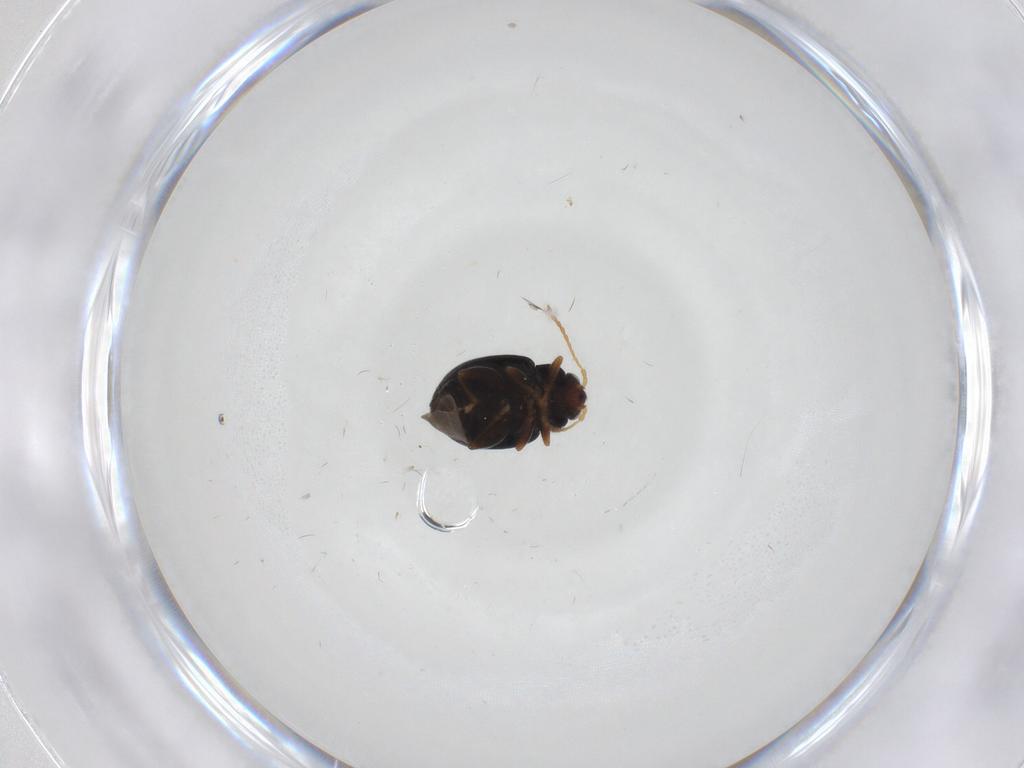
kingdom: Animalia
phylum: Arthropoda
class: Insecta
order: Coleoptera
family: Chrysomelidae
